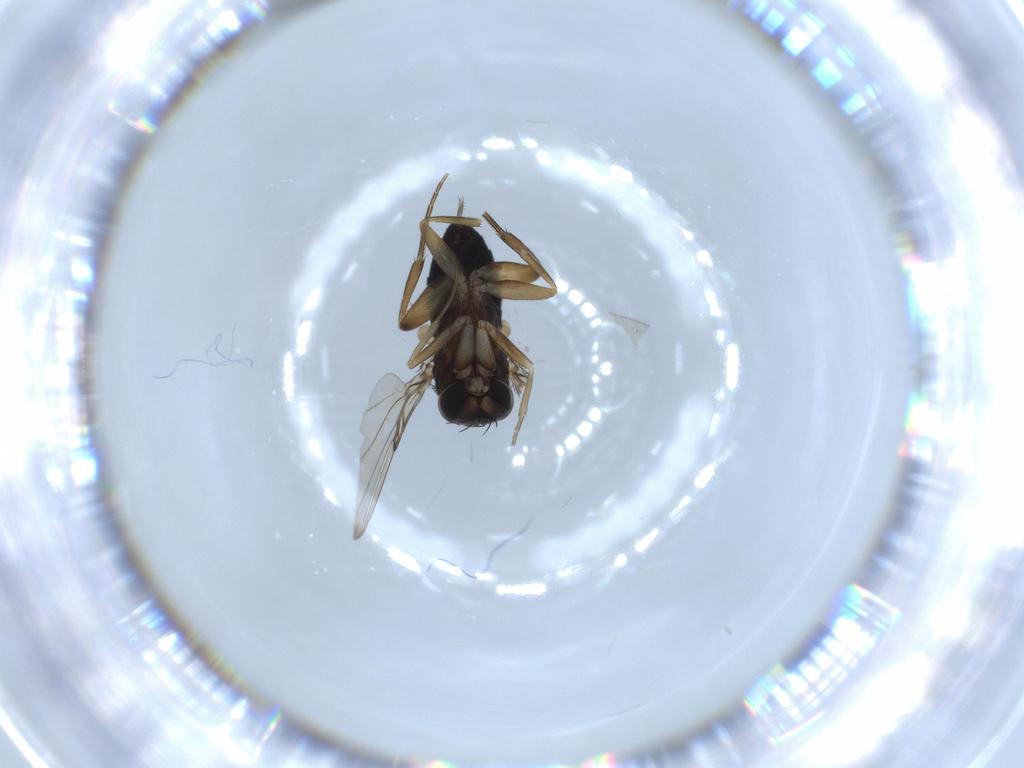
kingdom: Animalia
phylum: Arthropoda
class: Insecta
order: Diptera
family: Phoridae
